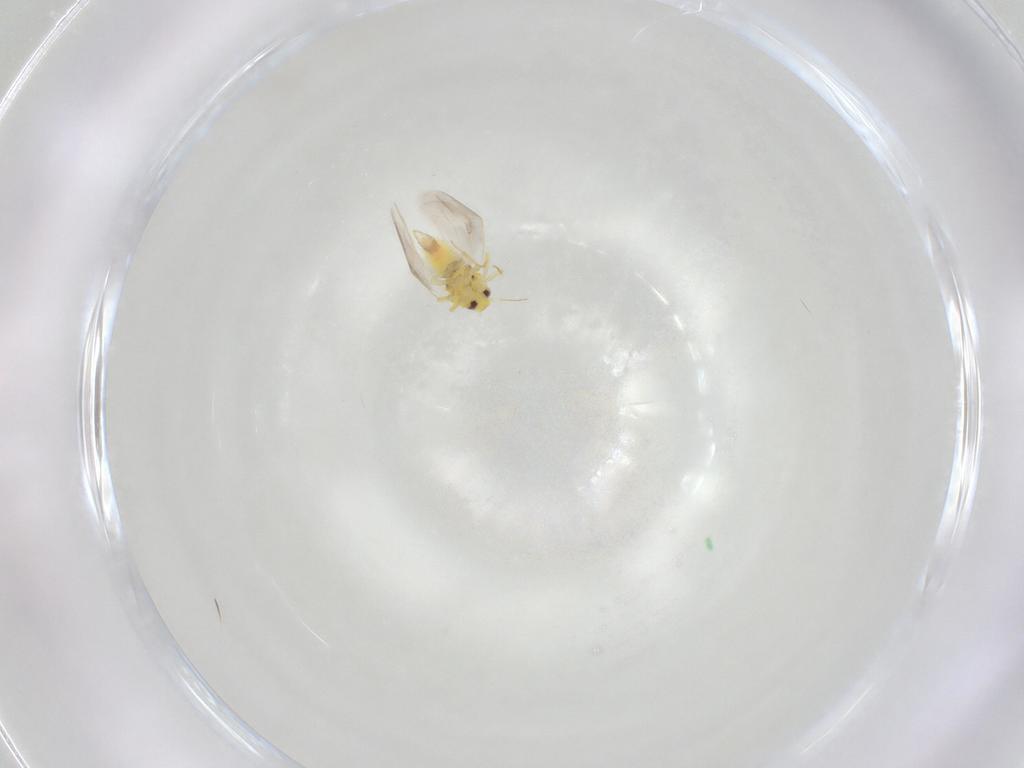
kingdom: Animalia
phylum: Arthropoda
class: Insecta
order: Hemiptera
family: Aleyrodidae
